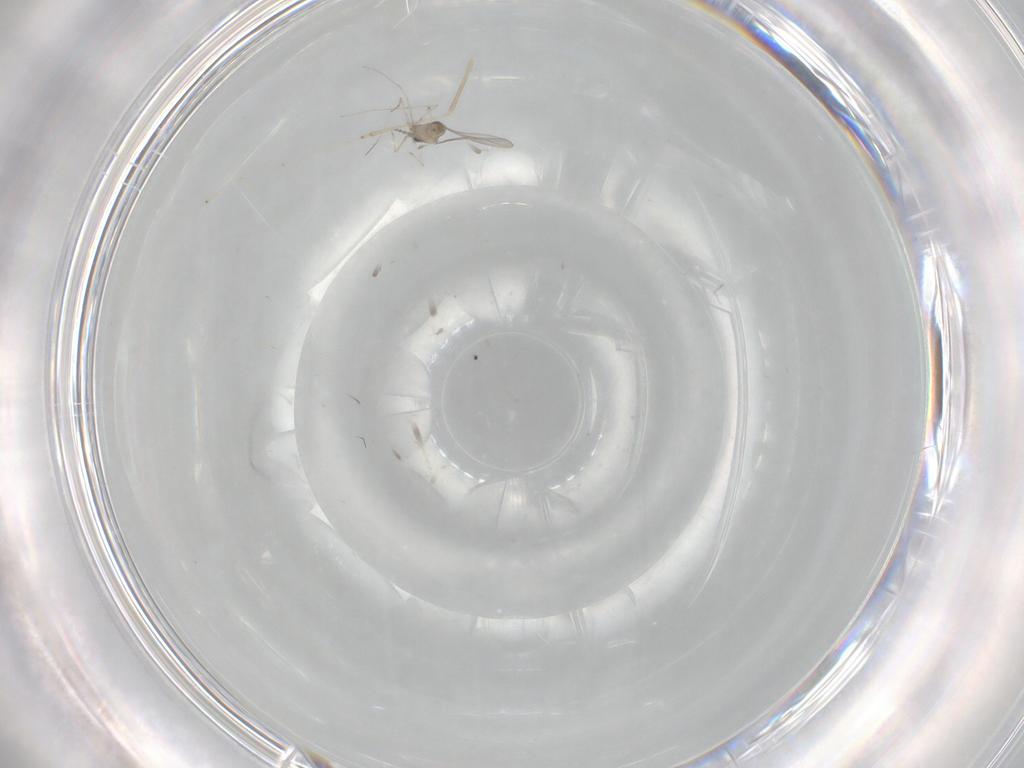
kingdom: Animalia
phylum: Arthropoda
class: Insecta
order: Diptera
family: Cecidomyiidae
